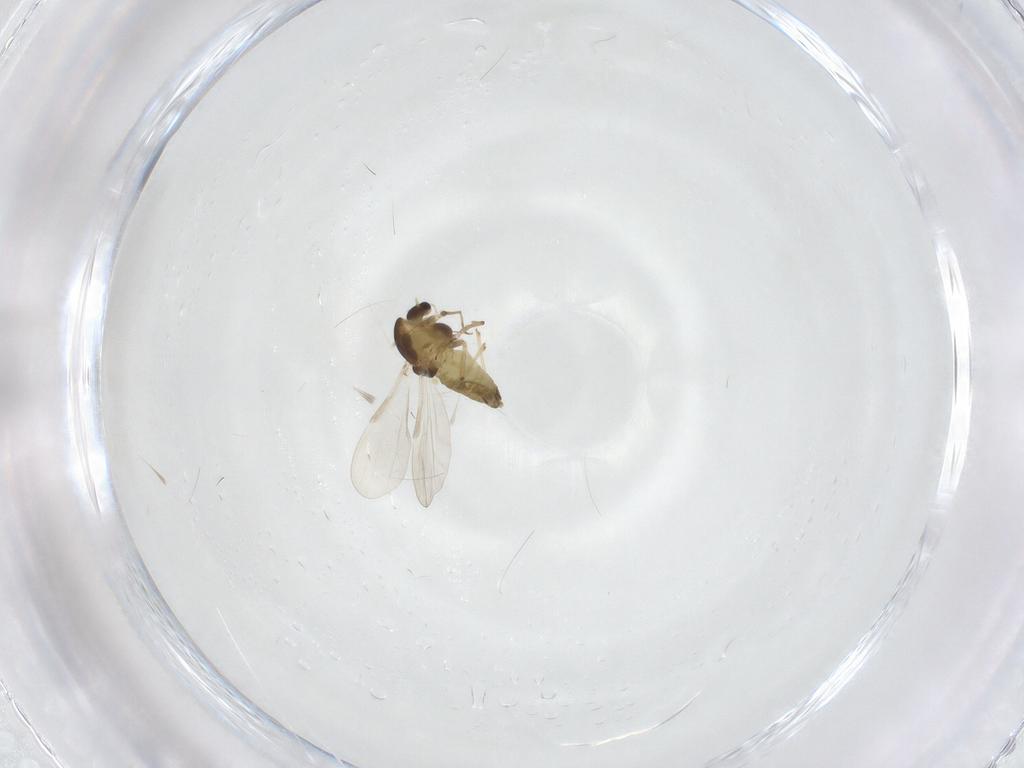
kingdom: Animalia
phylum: Arthropoda
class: Insecta
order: Diptera
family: Chironomidae
